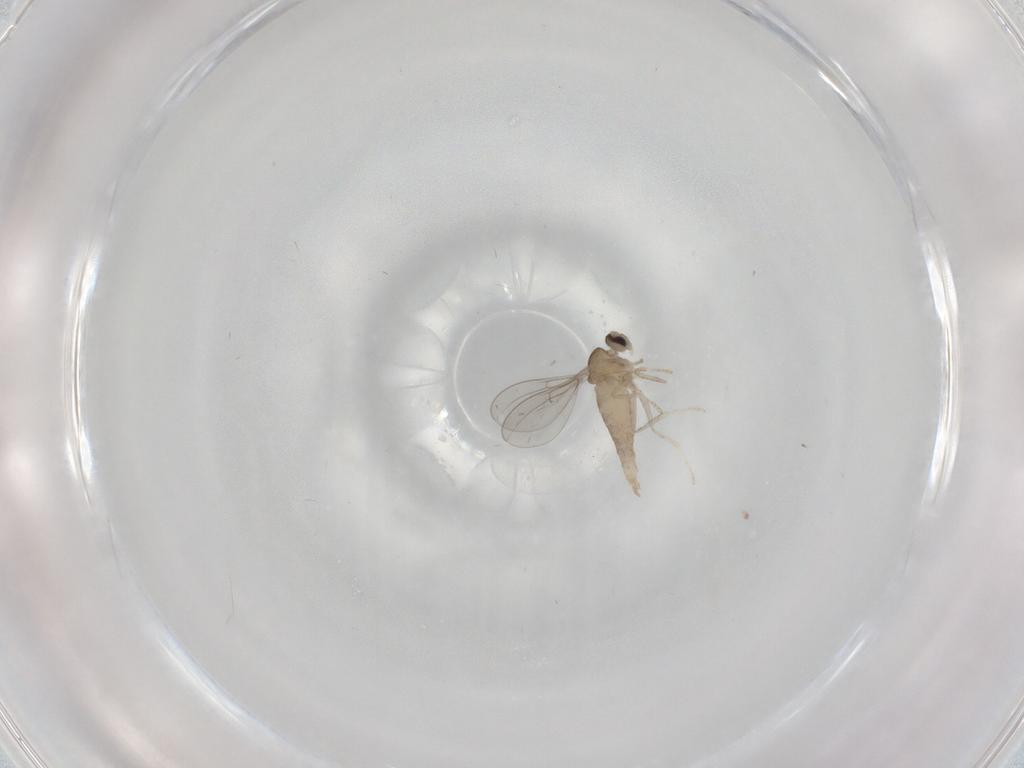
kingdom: Animalia
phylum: Arthropoda
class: Insecta
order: Diptera
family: Cecidomyiidae
